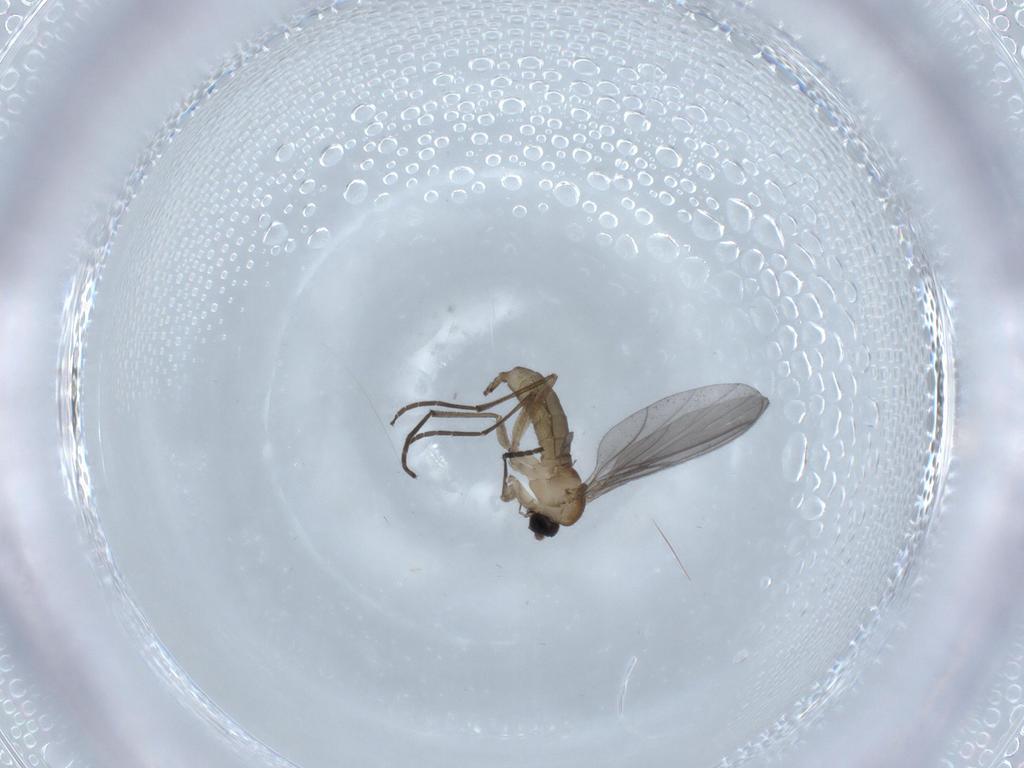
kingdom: Animalia
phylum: Arthropoda
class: Insecta
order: Diptera
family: Sciaridae
